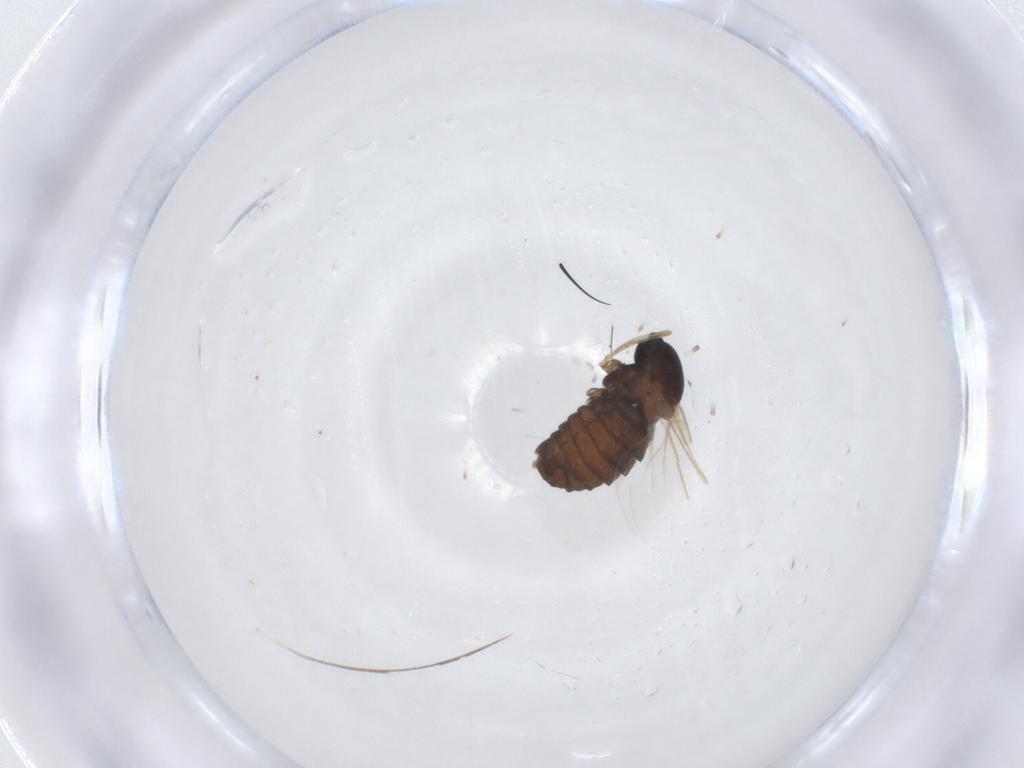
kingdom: Animalia
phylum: Arthropoda
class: Insecta
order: Diptera
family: Cecidomyiidae
